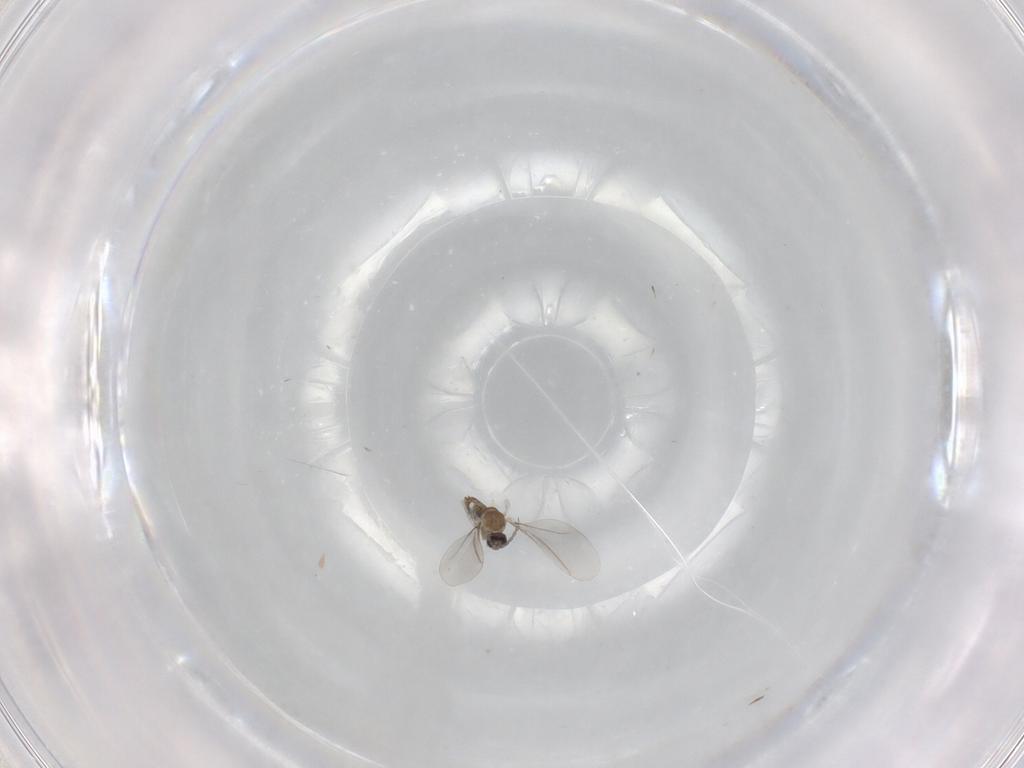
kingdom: Animalia
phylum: Arthropoda
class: Insecta
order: Diptera
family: Cecidomyiidae
